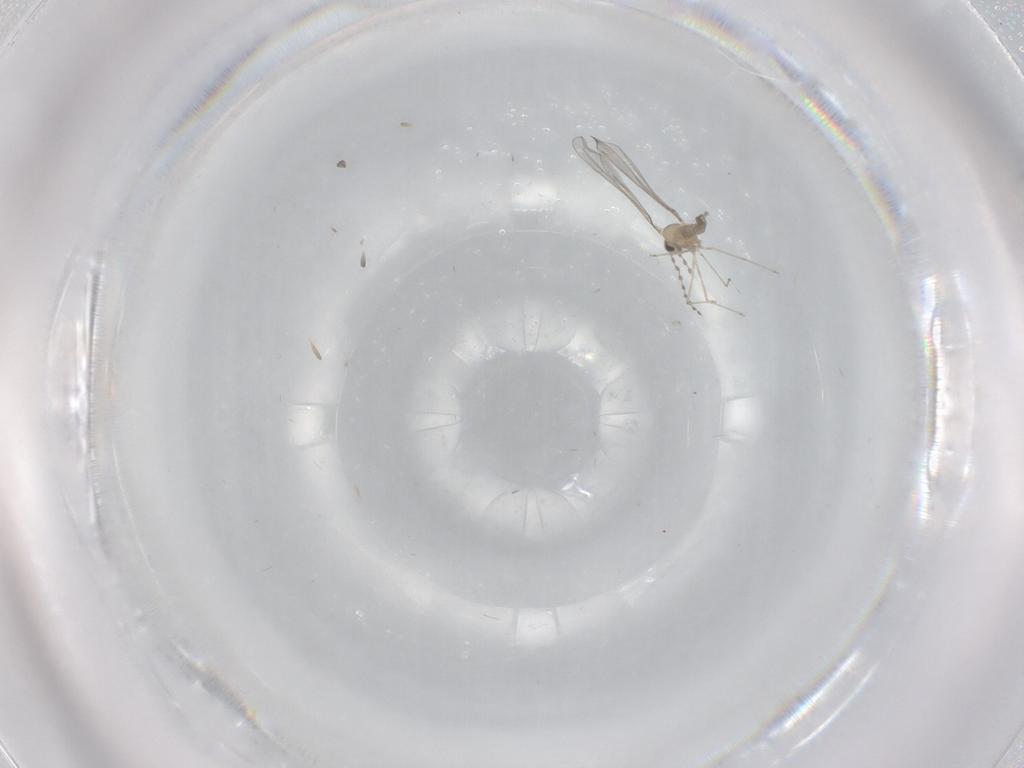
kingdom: Animalia
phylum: Arthropoda
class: Insecta
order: Diptera
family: Cecidomyiidae
